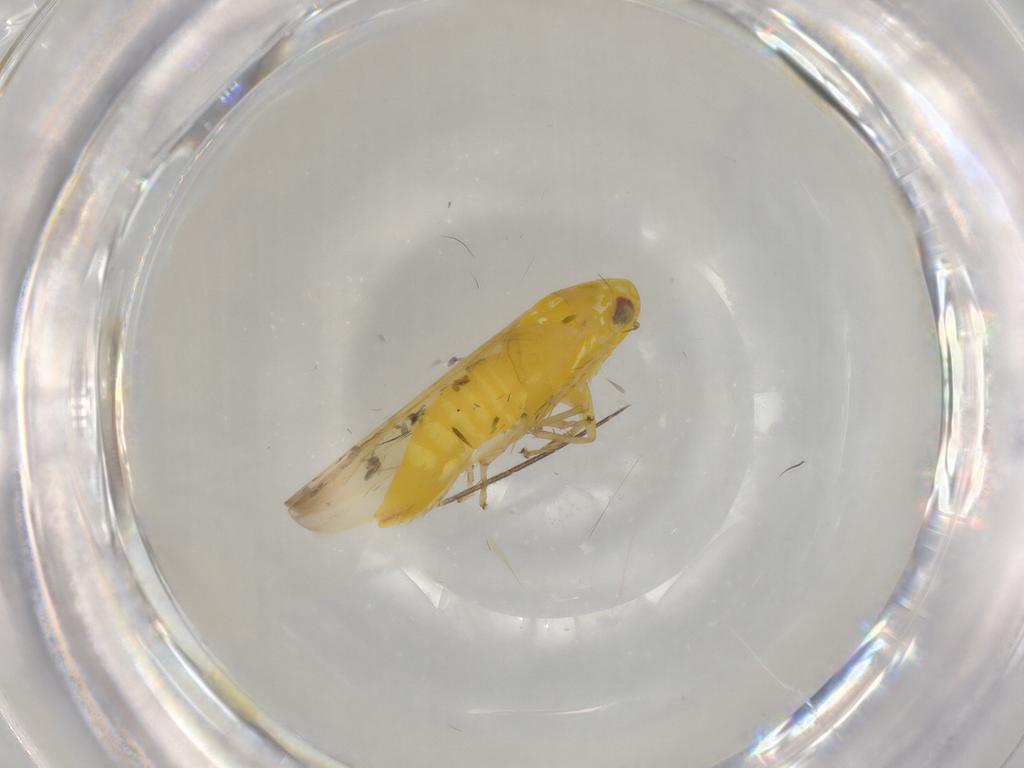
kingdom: Animalia
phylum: Arthropoda
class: Insecta
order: Hemiptera
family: Cicadellidae
